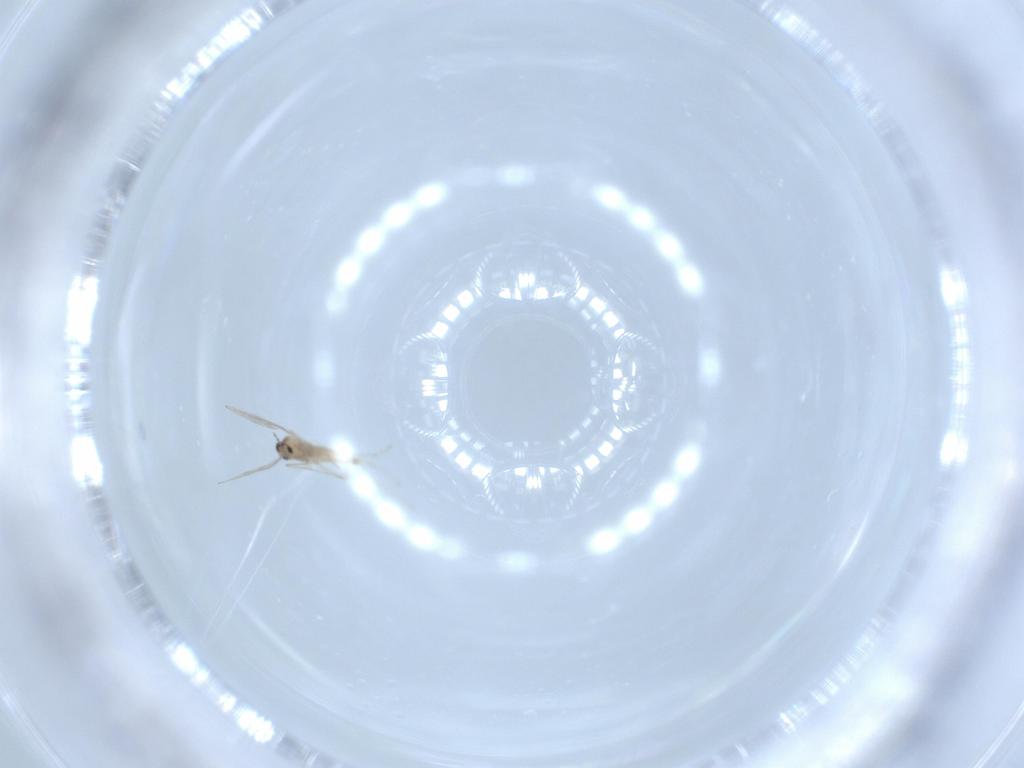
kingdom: Animalia
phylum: Arthropoda
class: Insecta
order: Diptera
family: Cecidomyiidae
